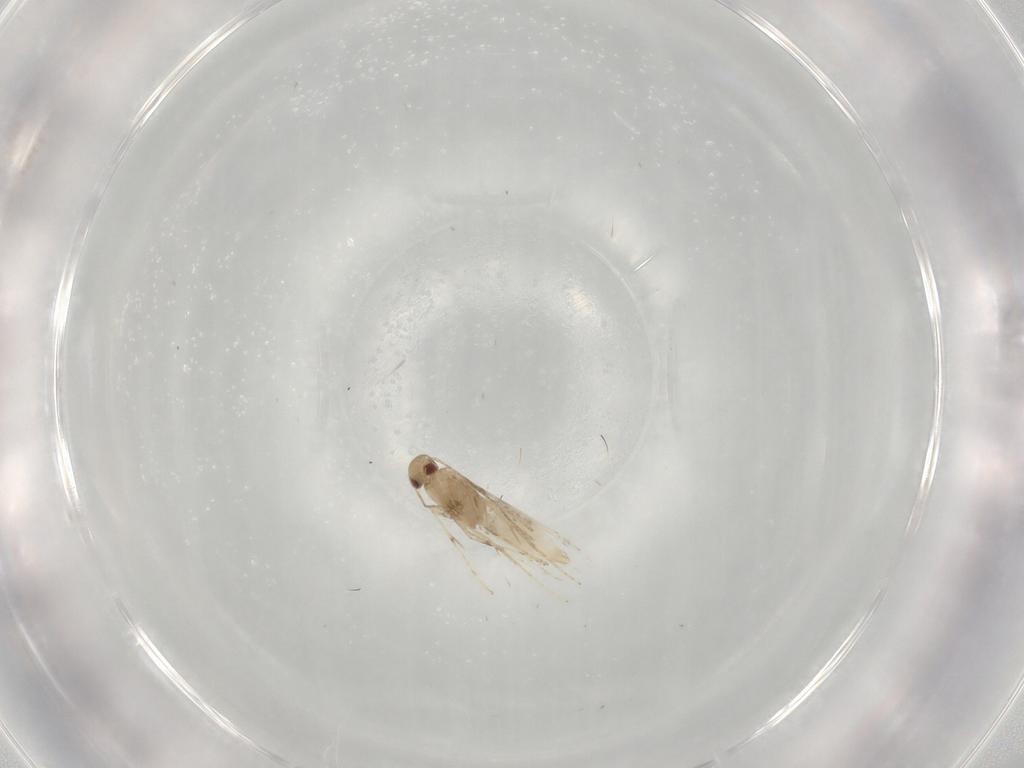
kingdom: Animalia
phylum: Arthropoda
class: Insecta
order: Lepidoptera
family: Gracillariidae
